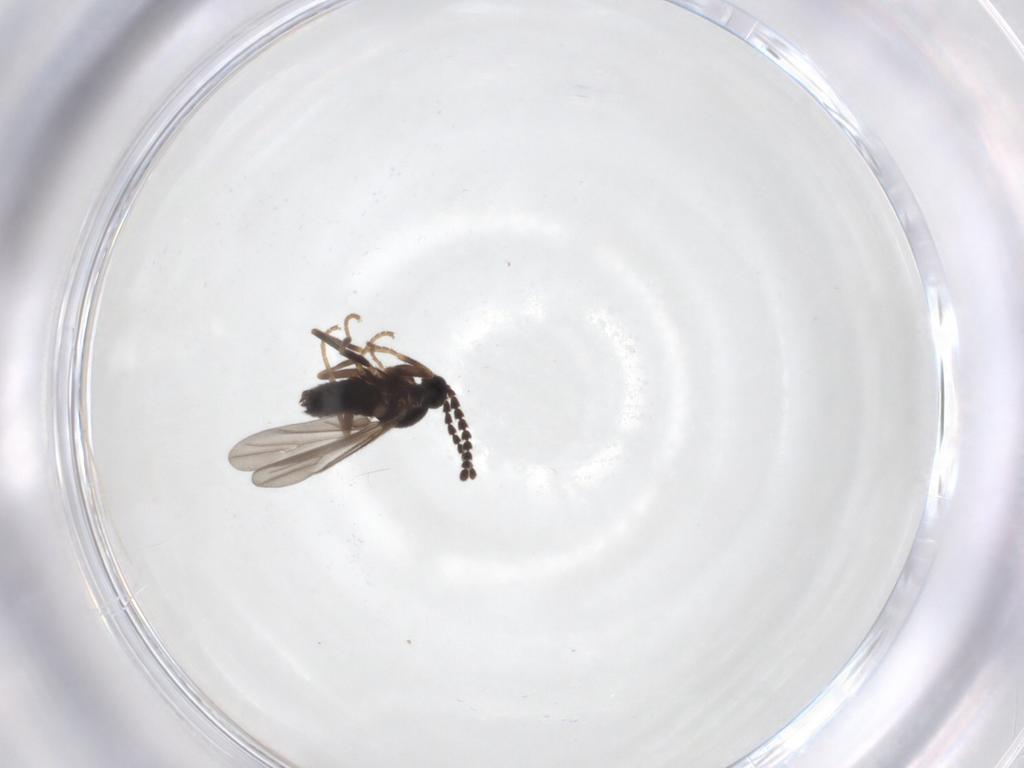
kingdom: Animalia
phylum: Arthropoda
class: Insecta
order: Diptera
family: Scatopsidae
